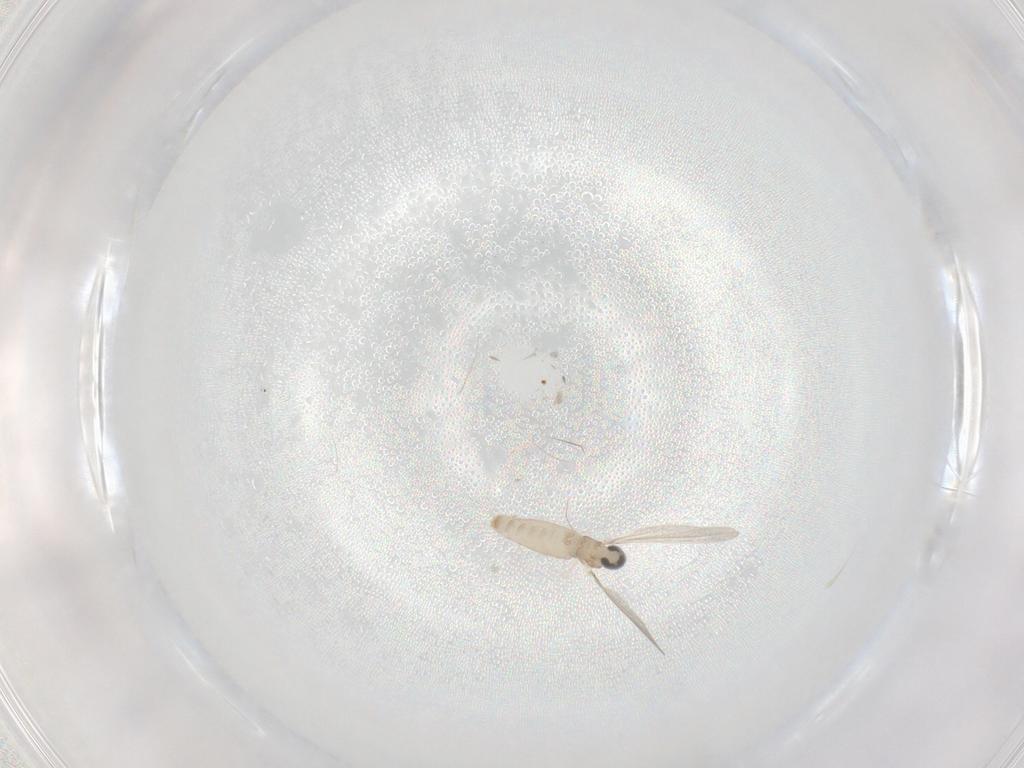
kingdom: Animalia
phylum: Arthropoda
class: Insecta
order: Diptera
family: Cecidomyiidae
